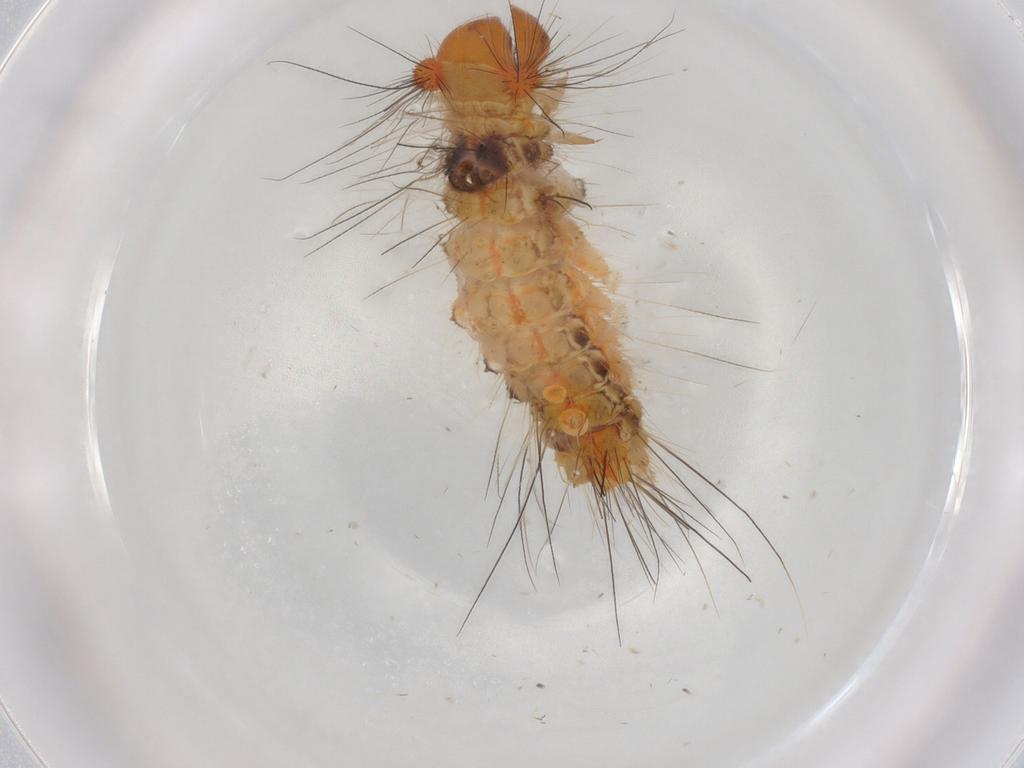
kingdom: Animalia
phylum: Arthropoda
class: Insecta
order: Lepidoptera
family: Erebidae
